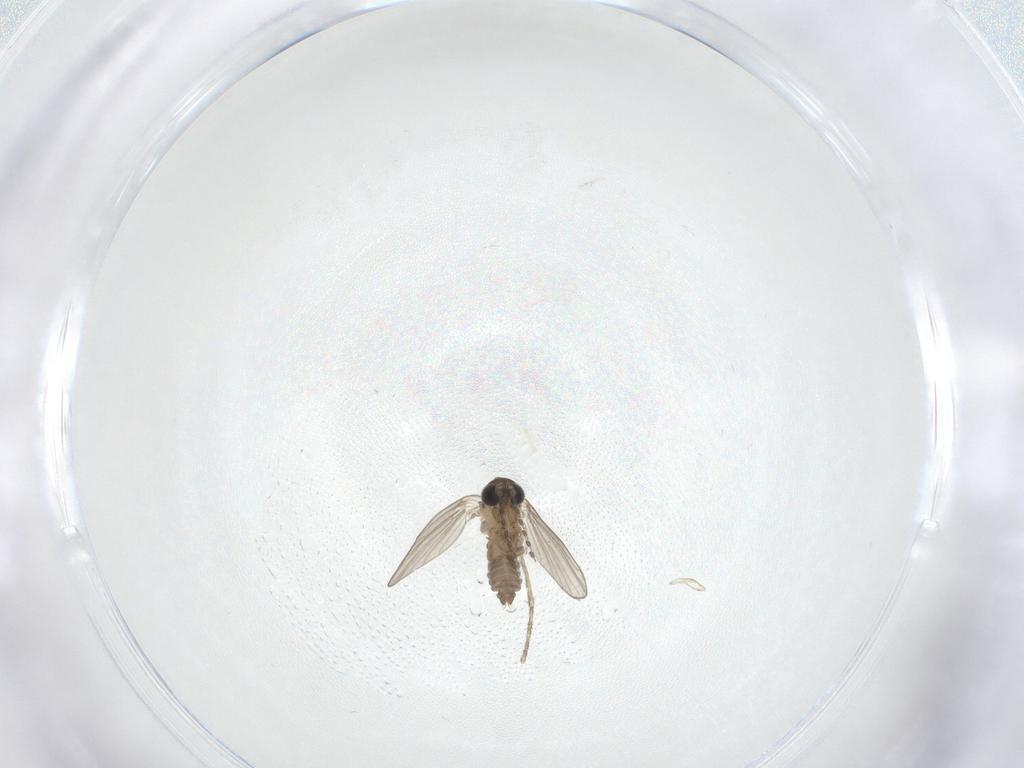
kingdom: Animalia
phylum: Arthropoda
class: Insecta
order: Diptera
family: Psychodidae
